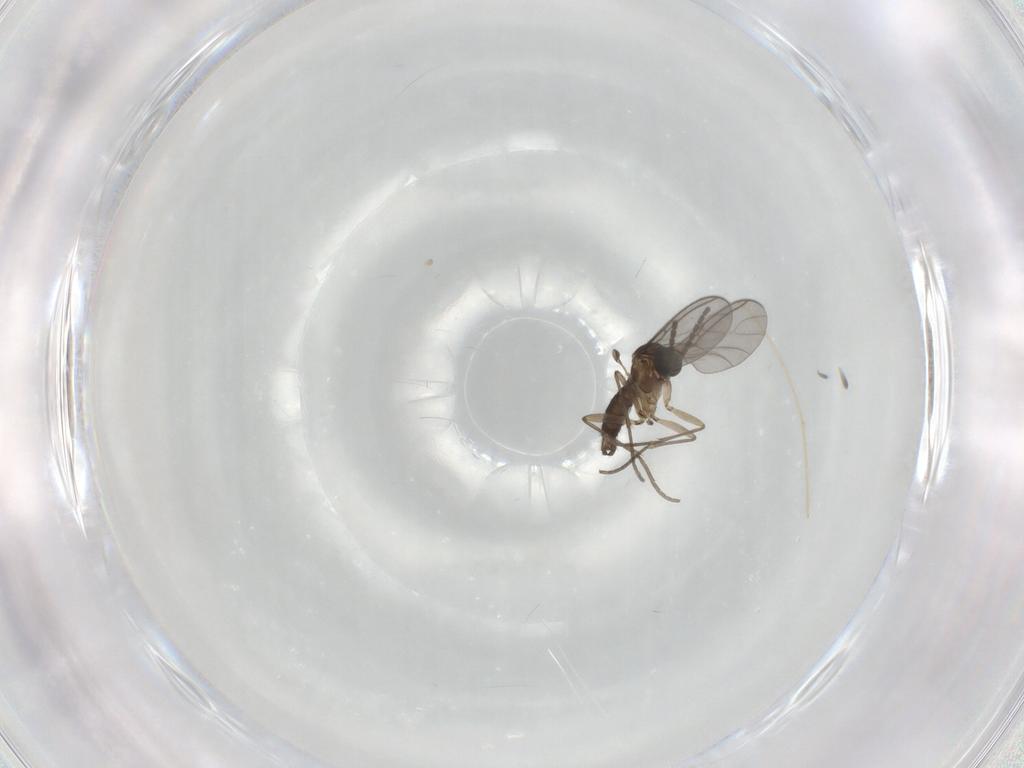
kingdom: Animalia
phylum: Arthropoda
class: Insecta
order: Diptera
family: Sciaridae
